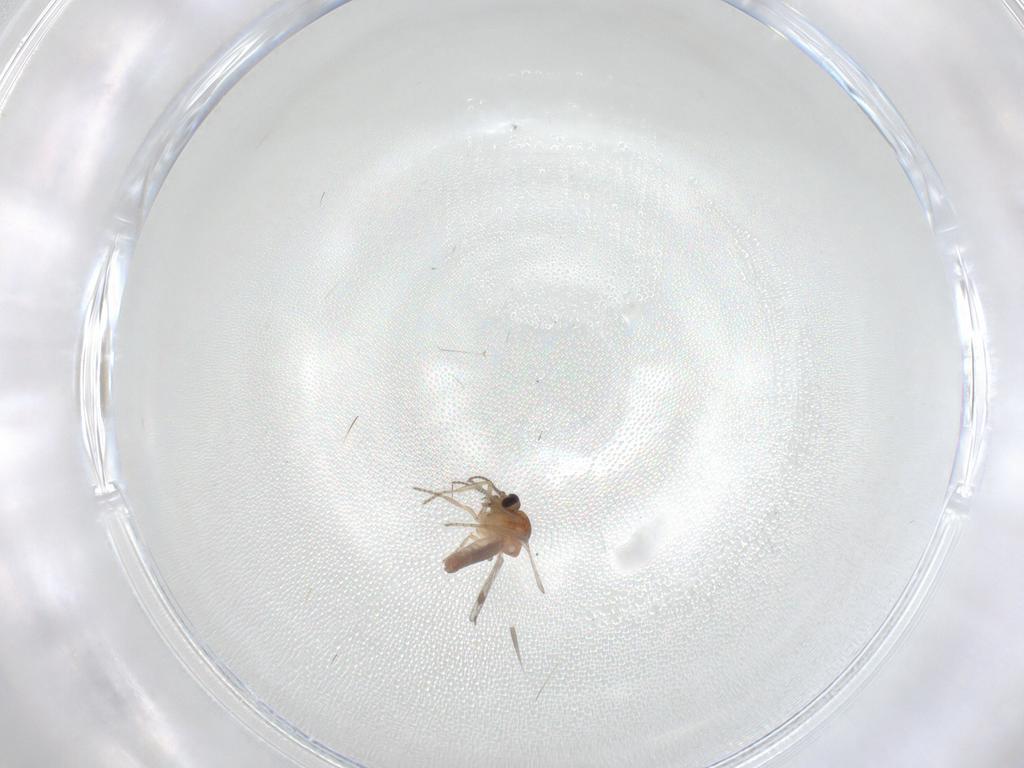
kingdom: Animalia
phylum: Arthropoda
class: Insecta
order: Diptera
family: Ceratopogonidae
